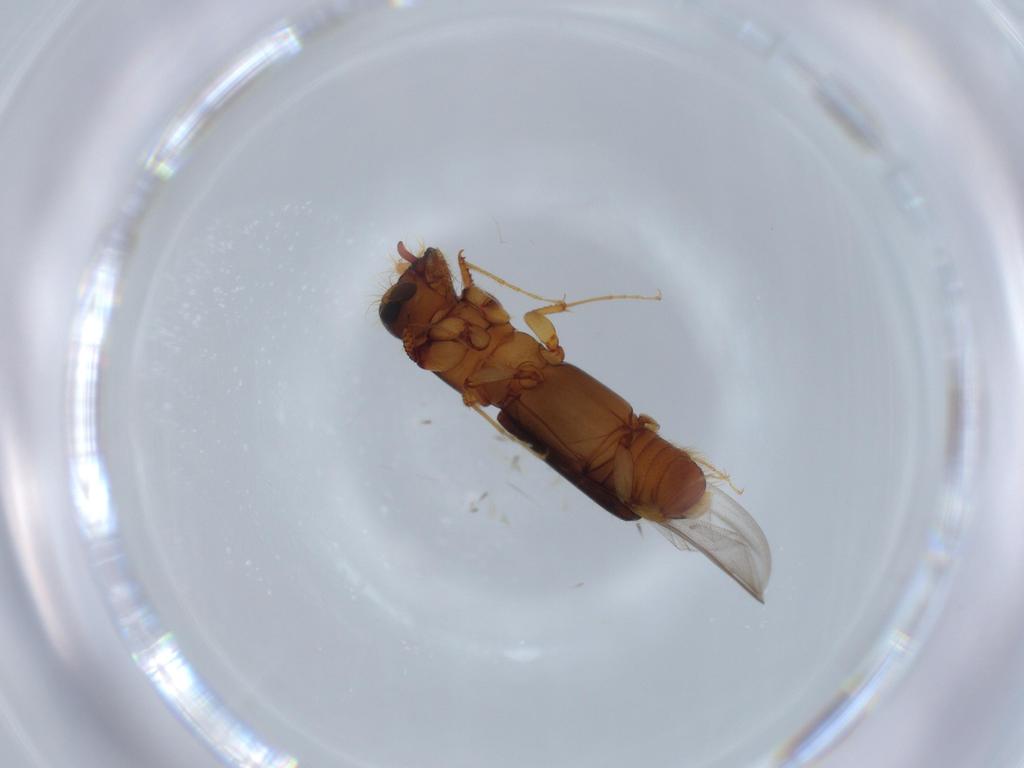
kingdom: Animalia
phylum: Arthropoda
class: Insecta
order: Coleoptera
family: Curculionidae
